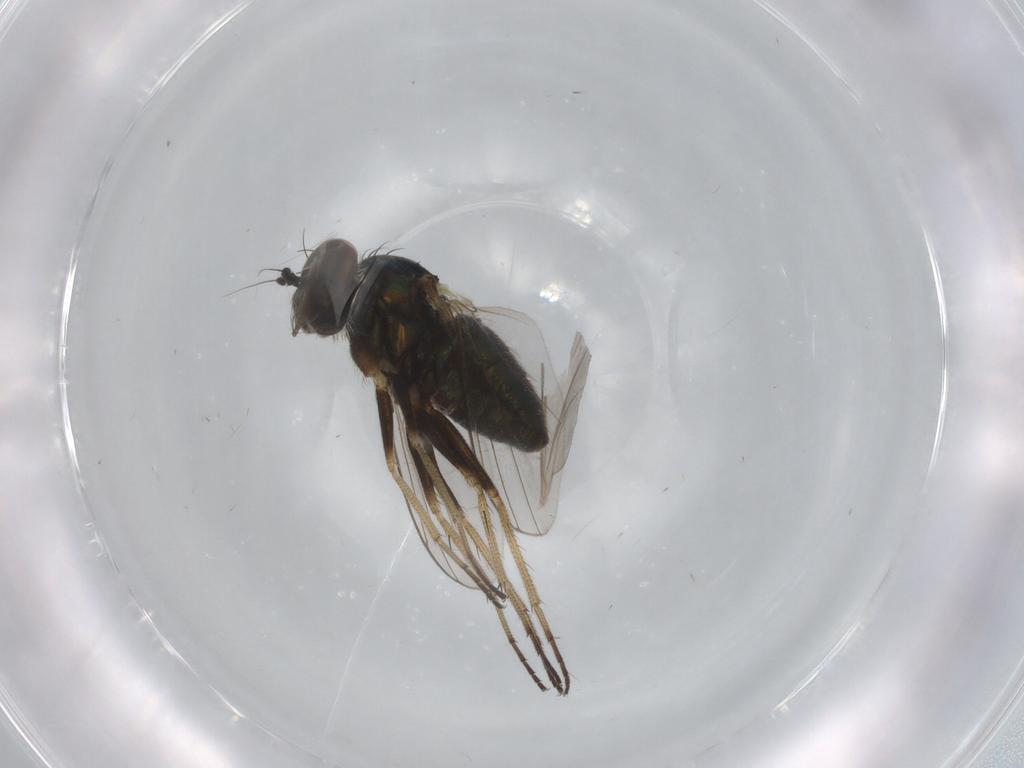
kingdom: Animalia
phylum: Arthropoda
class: Insecta
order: Diptera
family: Dolichopodidae
